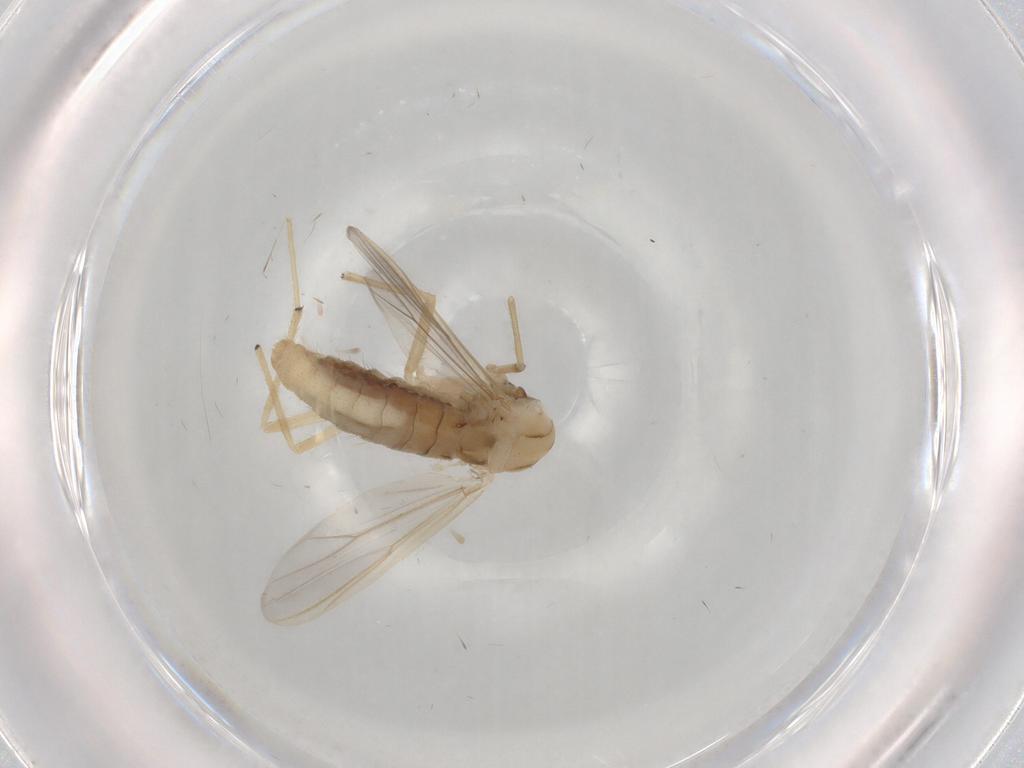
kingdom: Animalia
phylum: Arthropoda
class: Insecta
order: Diptera
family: Chironomidae
